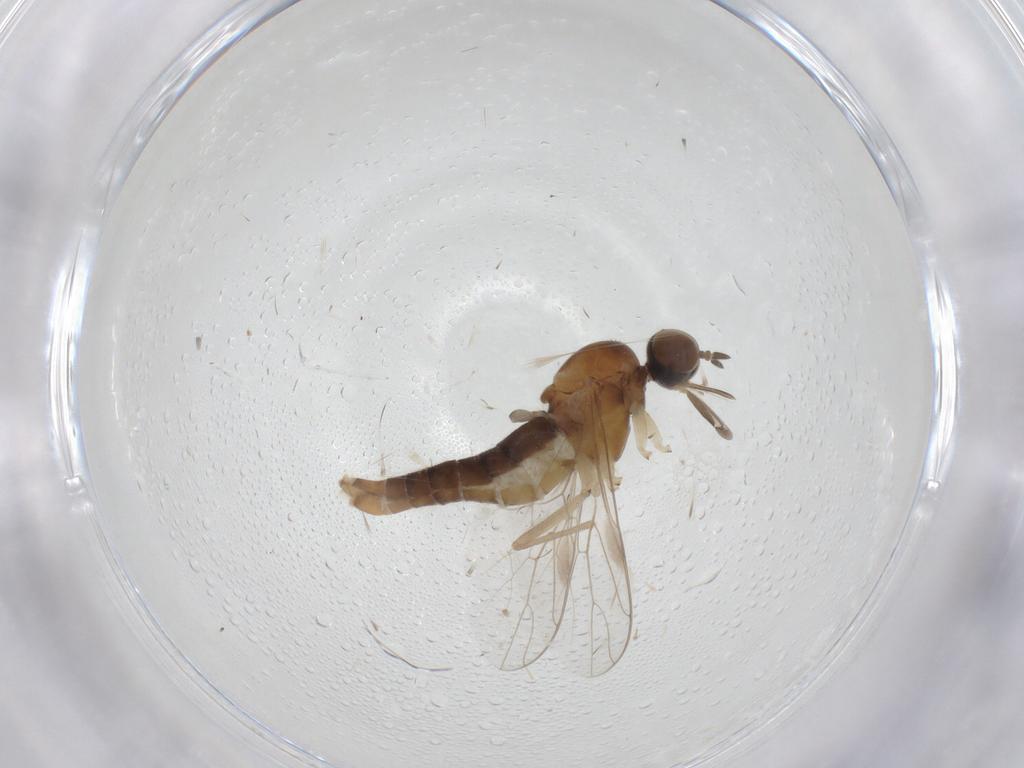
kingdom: Animalia
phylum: Arthropoda
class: Insecta
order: Diptera
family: Scenopinidae
